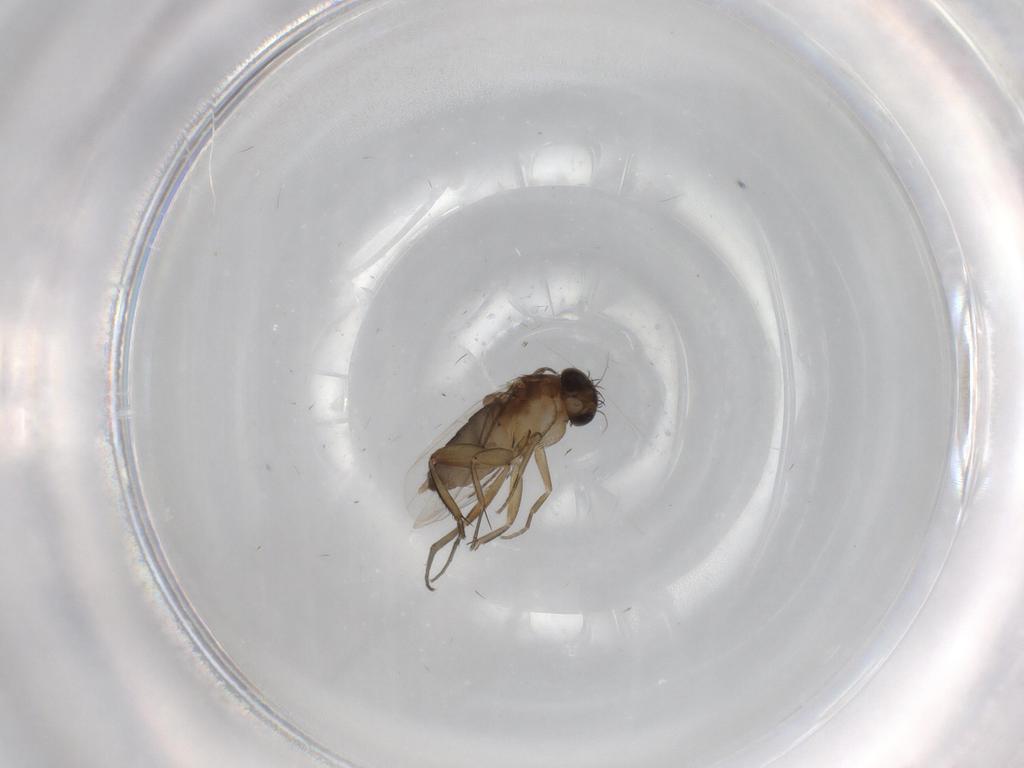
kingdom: Animalia
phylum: Arthropoda
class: Insecta
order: Diptera
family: Phoridae
